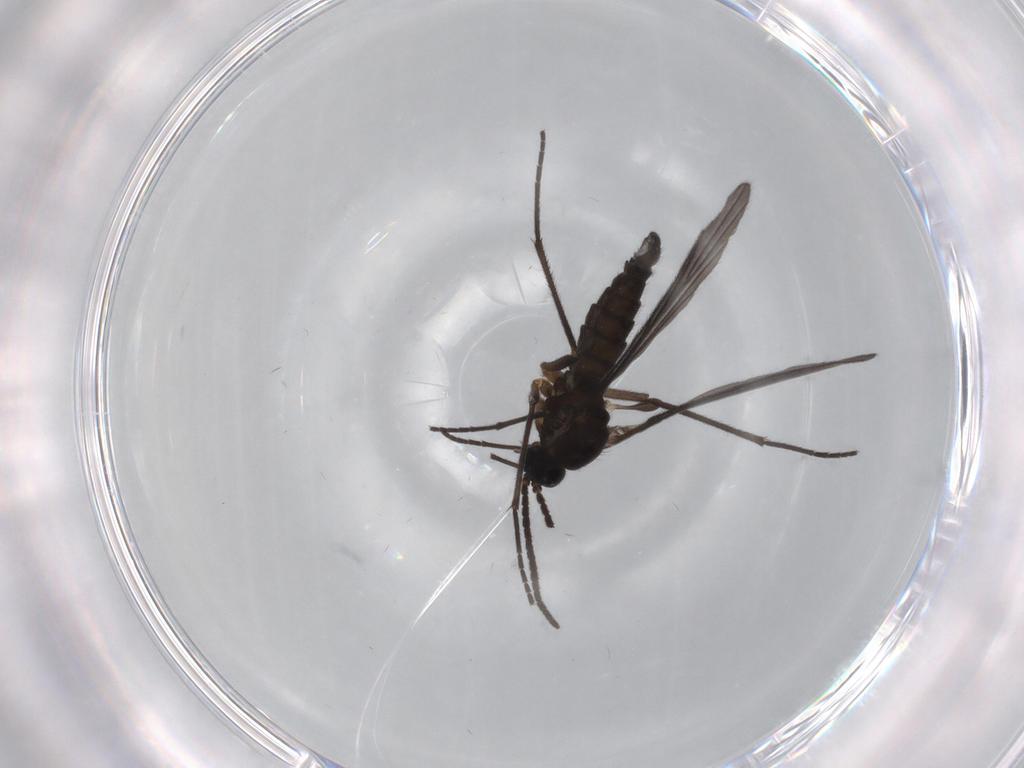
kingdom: Animalia
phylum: Arthropoda
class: Insecta
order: Diptera
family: Sciaridae
